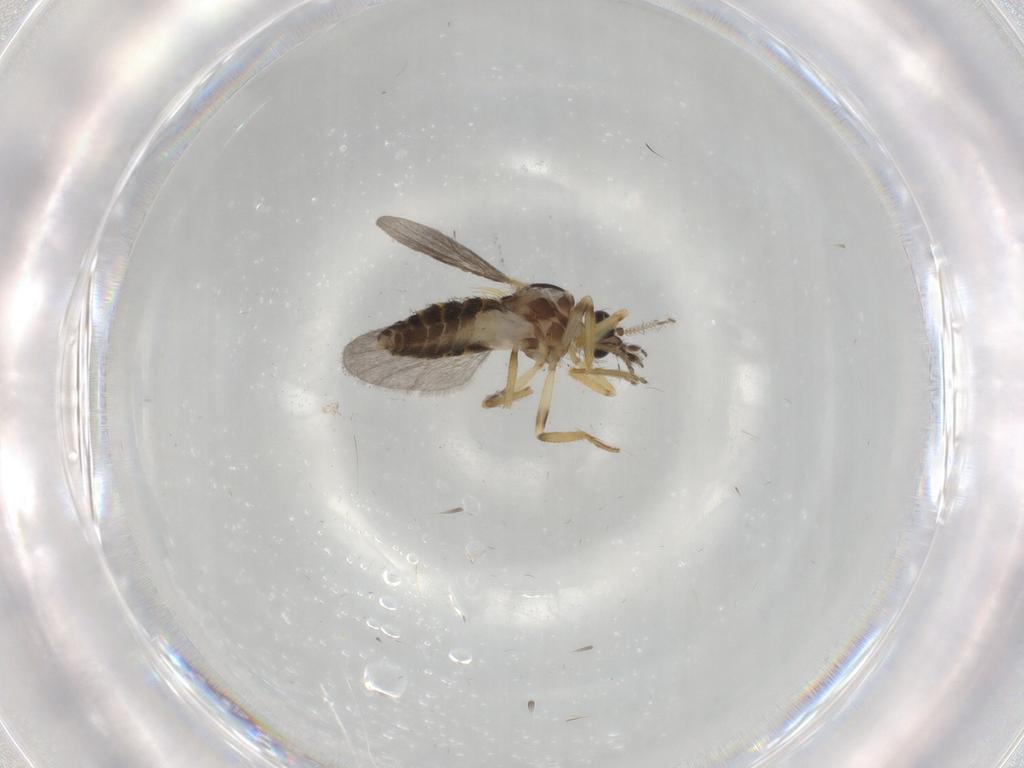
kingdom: Animalia
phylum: Arthropoda
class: Insecta
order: Diptera
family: Ceratopogonidae
